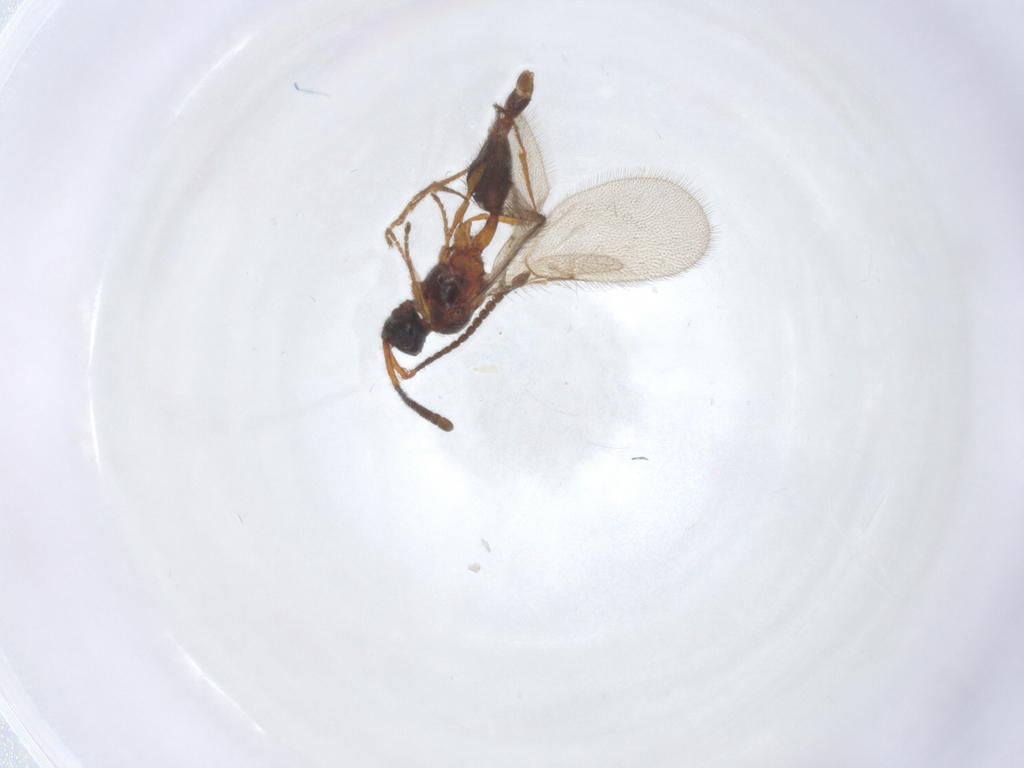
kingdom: Animalia
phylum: Arthropoda
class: Insecta
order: Hymenoptera
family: Diapriidae
